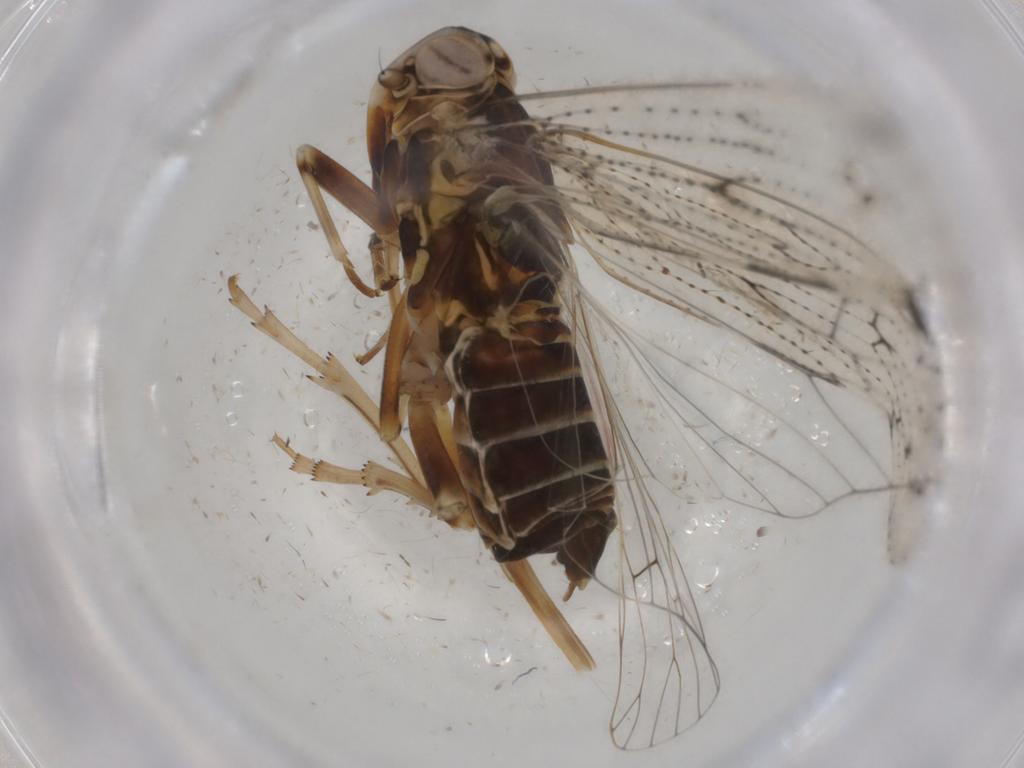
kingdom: Animalia
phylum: Arthropoda
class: Insecta
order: Hemiptera
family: Cixiidae
